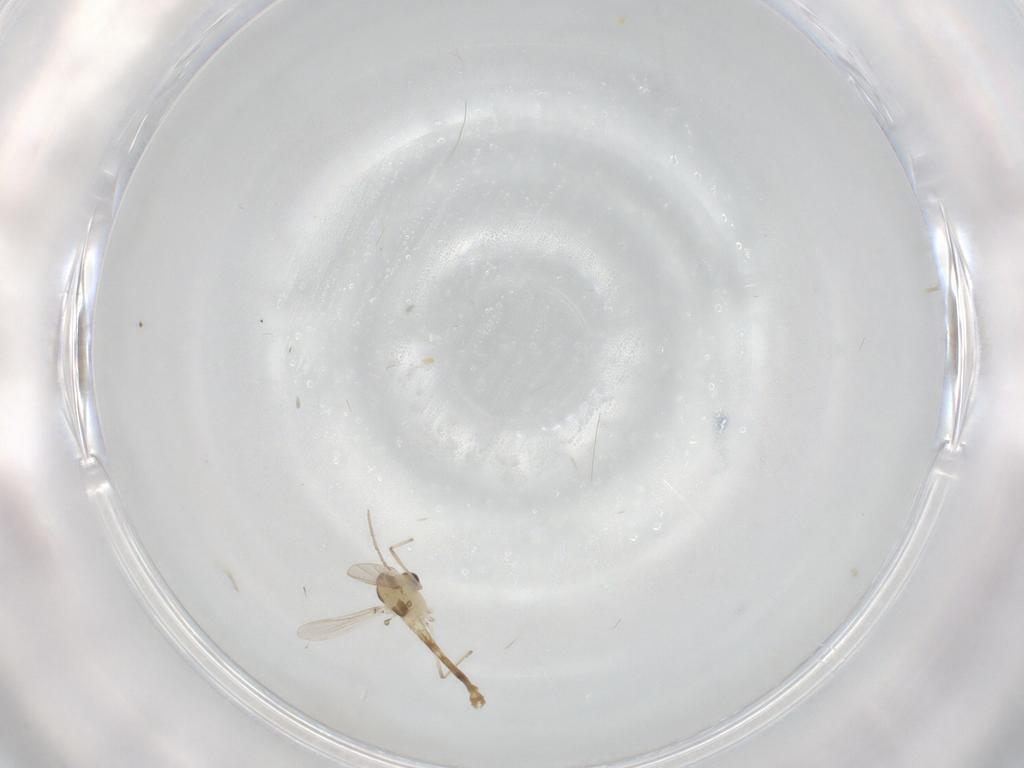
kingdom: Animalia
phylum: Arthropoda
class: Insecta
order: Diptera
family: Chironomidae
